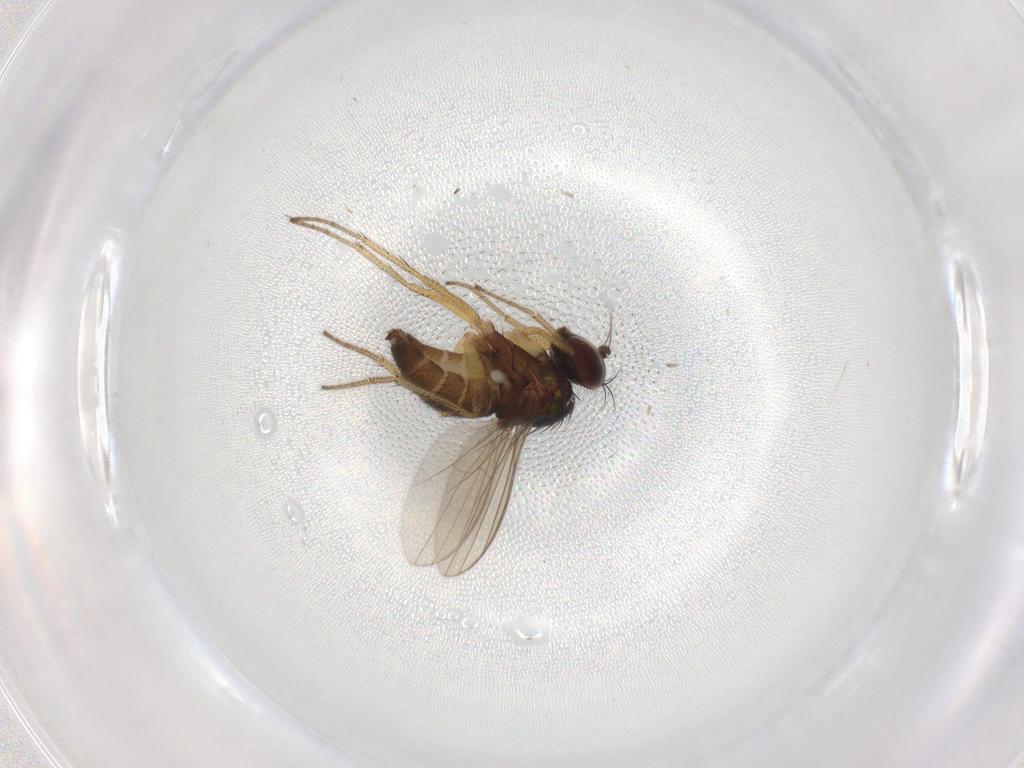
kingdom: Animalia
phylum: Arthropoda
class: Insecta
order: Diptera
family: Dolichopodidae
